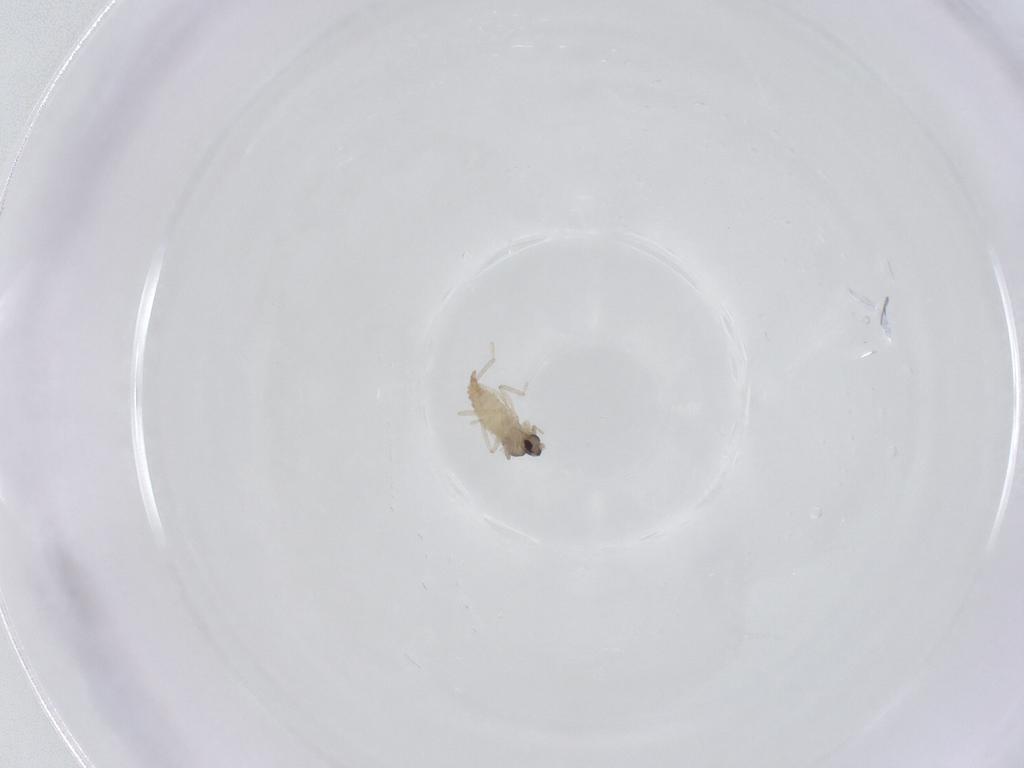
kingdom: Animalia
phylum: Arthropoda
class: Insecta
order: Diptera
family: Cecidomyiidae
